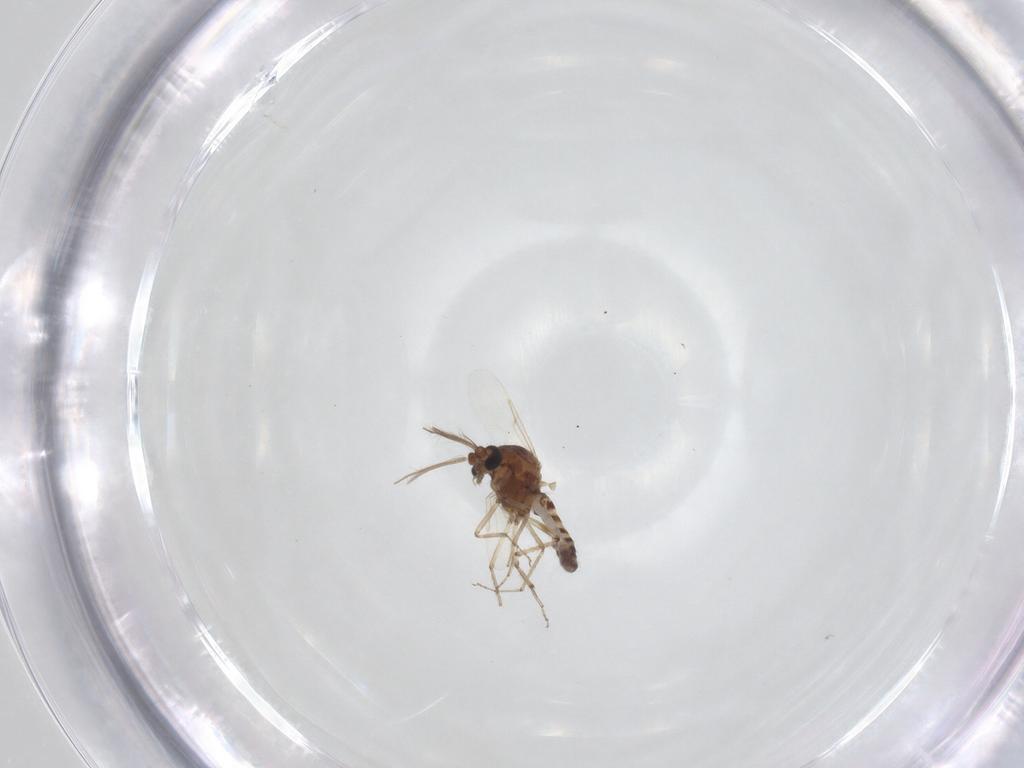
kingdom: Animalia
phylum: Arthropoda
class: Insecta
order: Diptera
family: Ceratopogonidae
